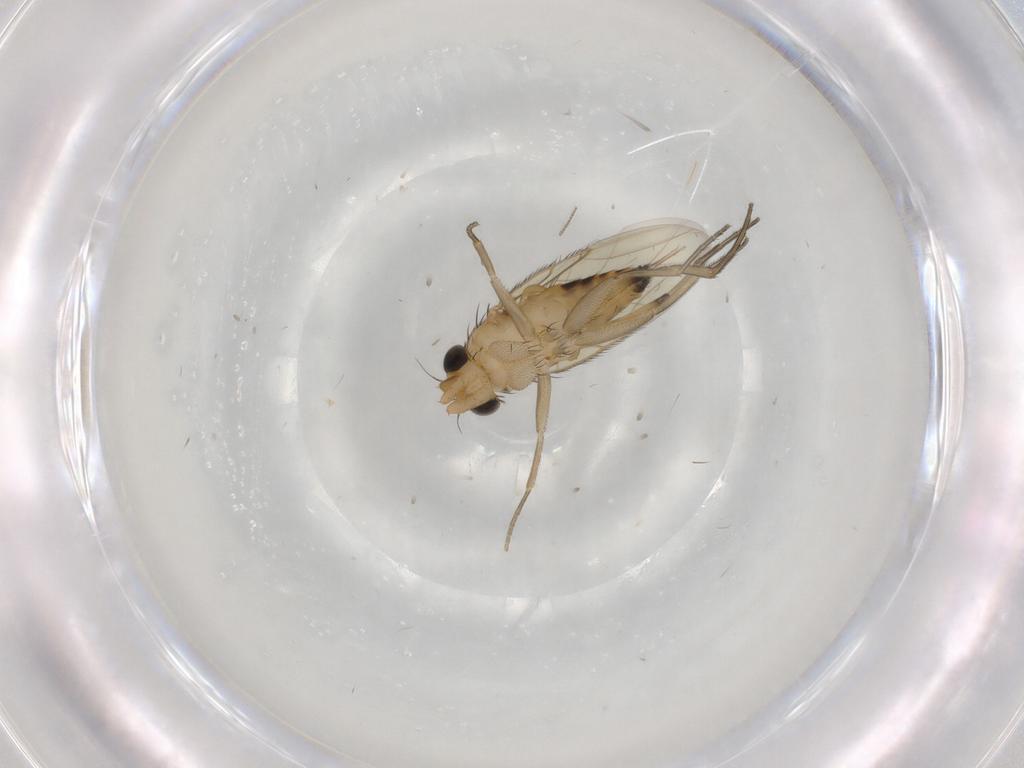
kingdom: Animalia
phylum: Arthropoda
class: Insecta
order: Diptera
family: Phoridae
